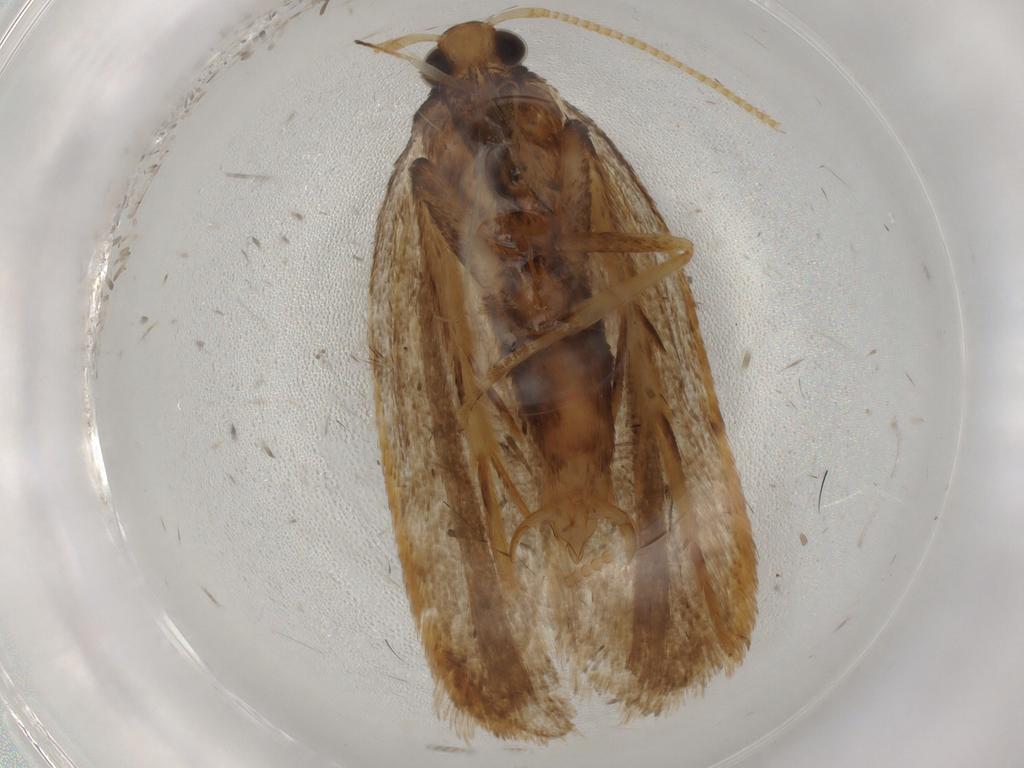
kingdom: Animalia
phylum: Arthropoda
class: Insecta
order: Lepidoptera
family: Lecithoceridae
